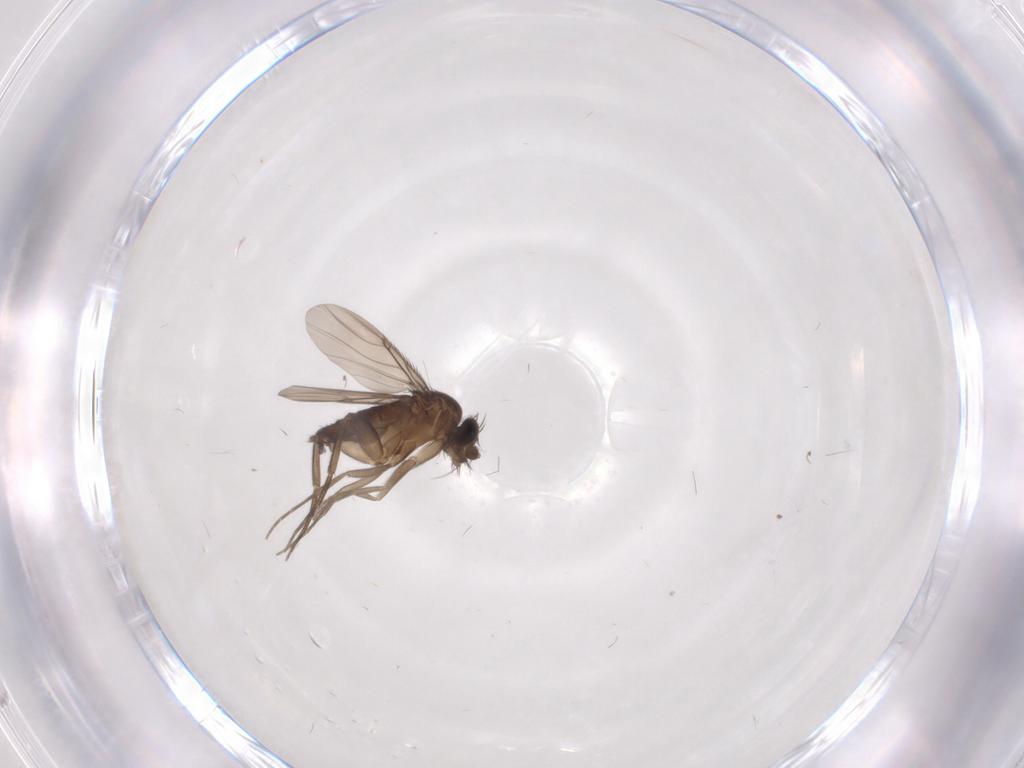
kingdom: Animalia
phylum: Arthropoda
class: Insecta
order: Diptera
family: Phoridae
